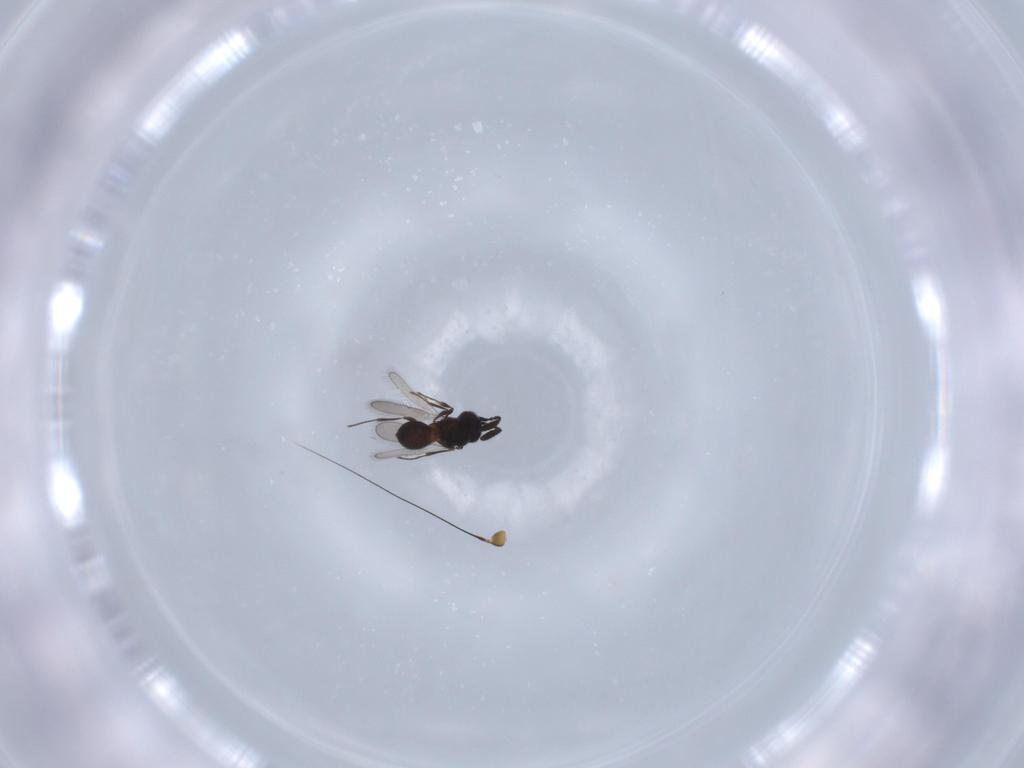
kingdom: Animalia
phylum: Arthropoda
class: Insecta
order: Hymenoptera
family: Scelionidae
